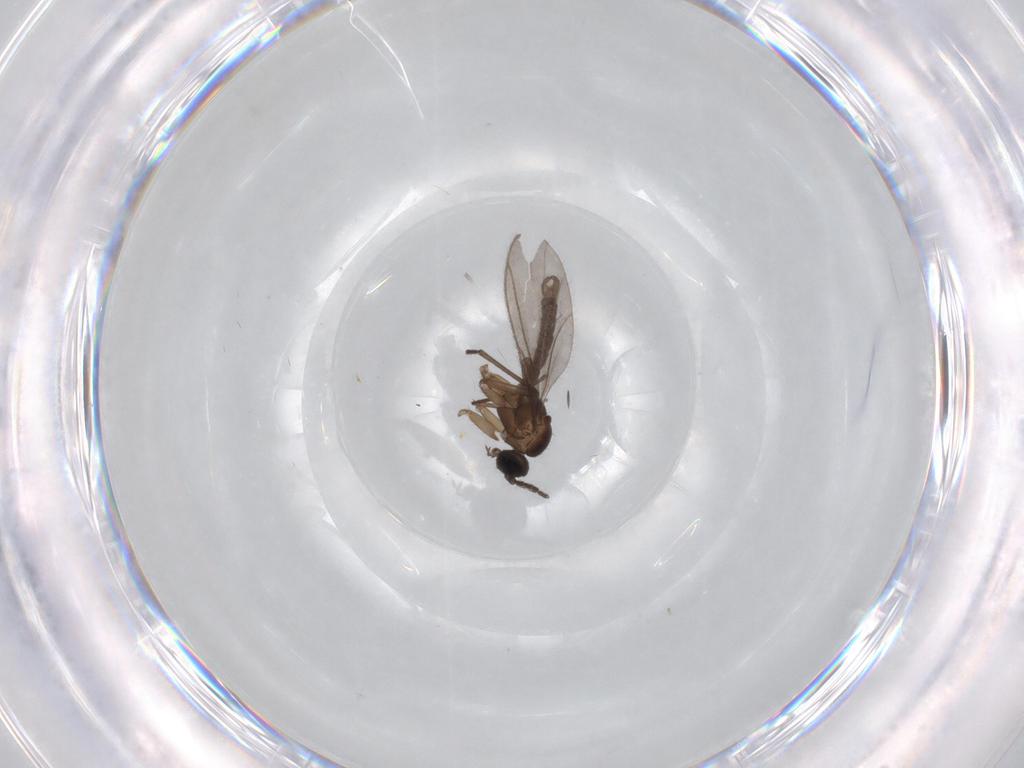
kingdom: Animalia
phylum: Arthropoda
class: Insecta
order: Diptera
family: Sciaridae
